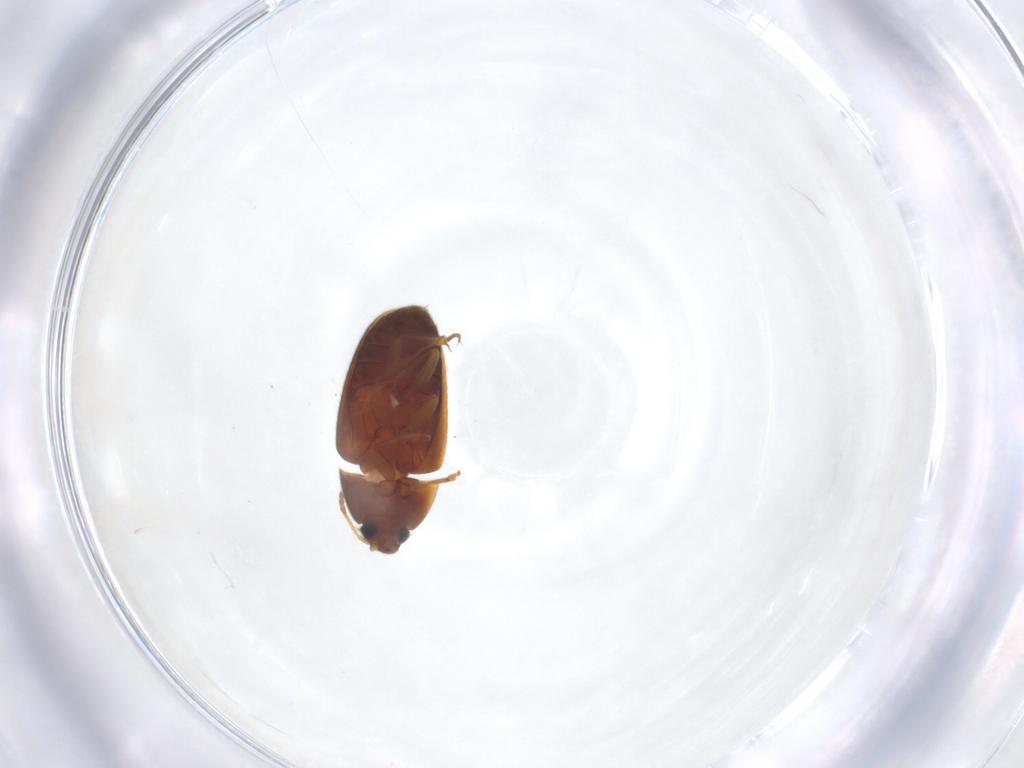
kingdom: Animalia
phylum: Arthropoda
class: Insecta
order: Coleoptera
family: Mycetophagidae
